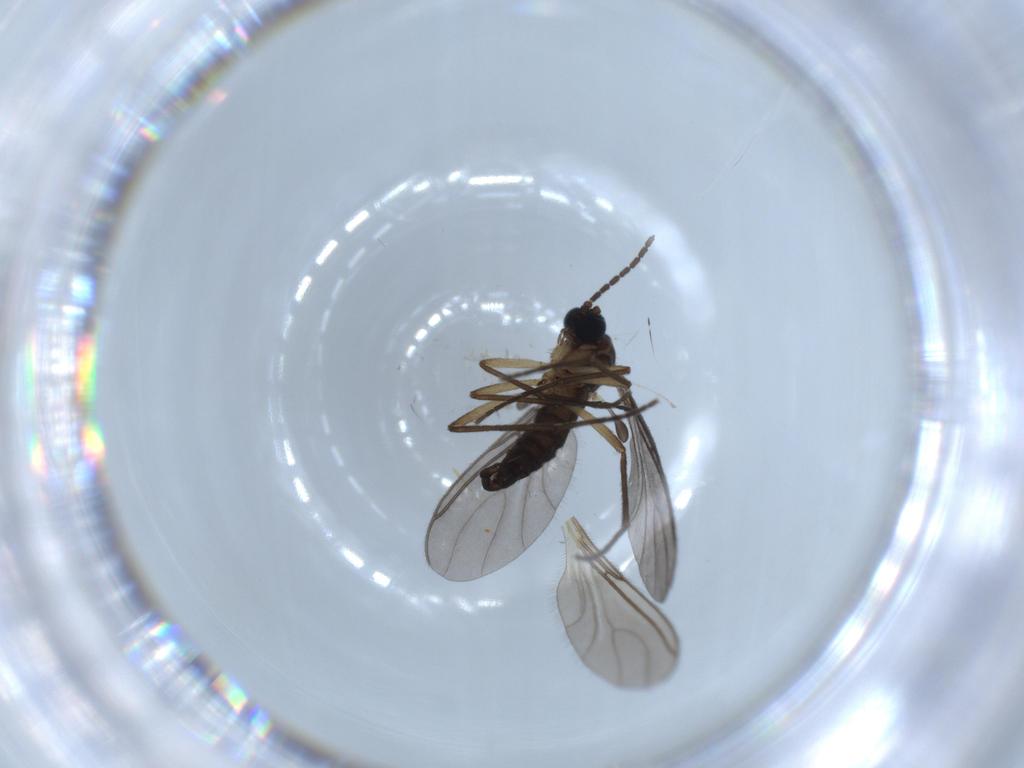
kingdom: Animalia
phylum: Arthropoda
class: Insecta
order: Diptera
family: Sciaridae
